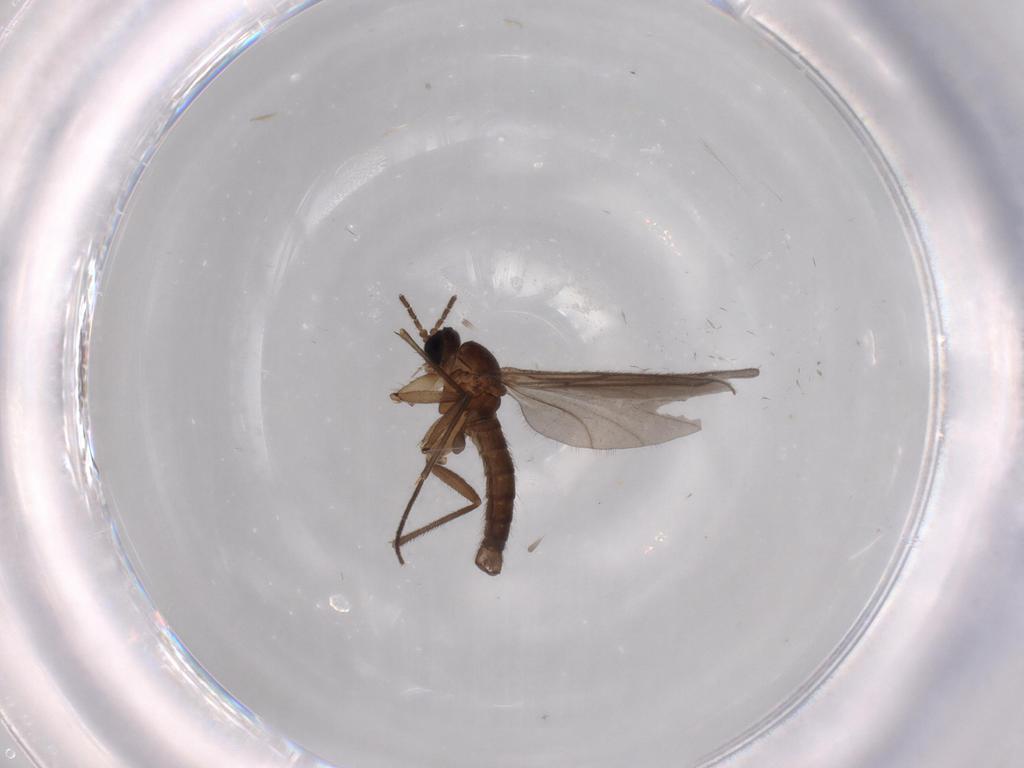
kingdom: Animalia
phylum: Arthropoda
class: Insecta
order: Diptera
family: Sciaridae
